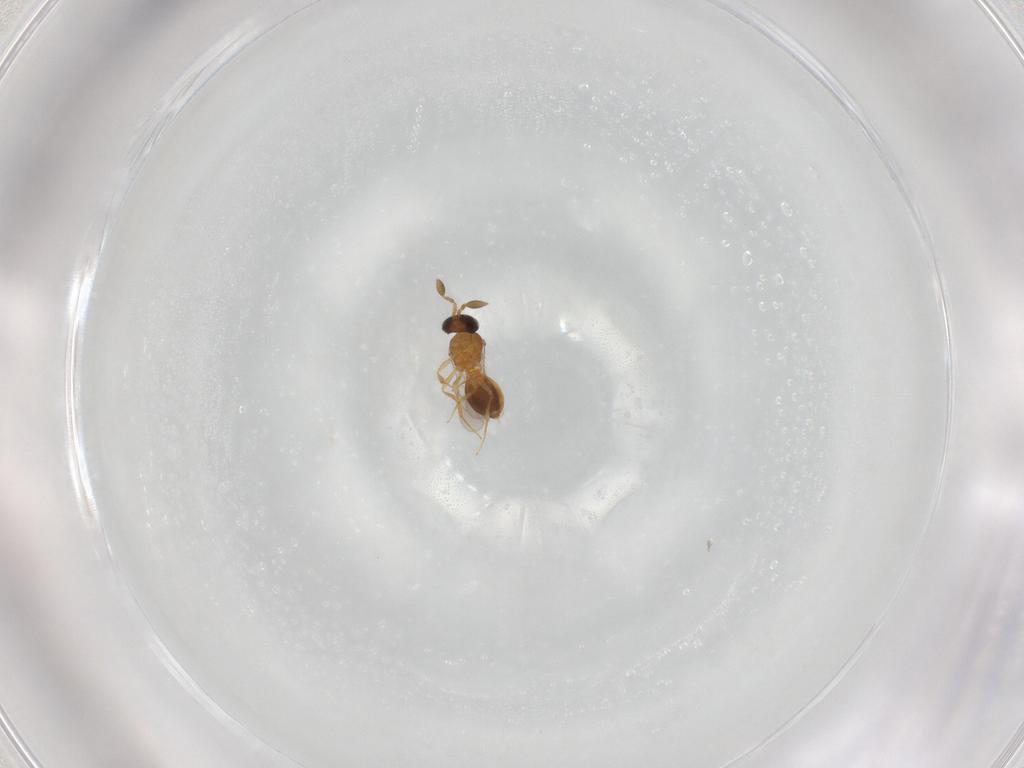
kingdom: Animalia
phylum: Arthropoda
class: Insecta
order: Hymenoptera
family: Scelionidae
